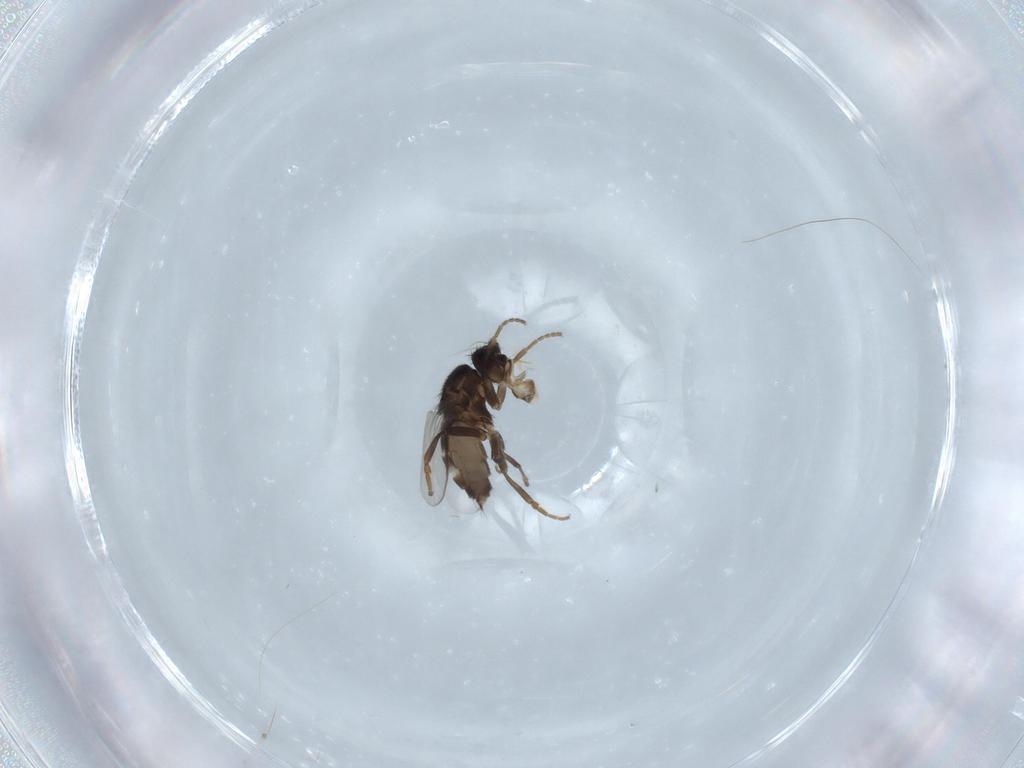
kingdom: Animalia
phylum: Arthropoda
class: Insecta
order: Diptera
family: Sphaeroceridae
